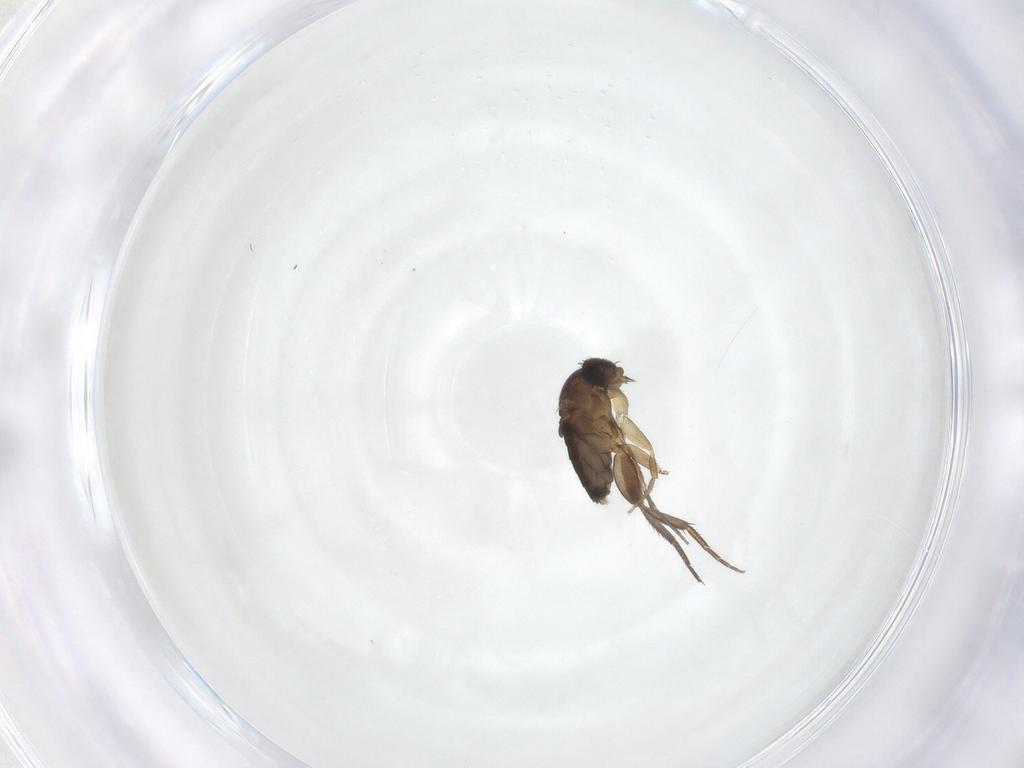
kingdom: Animalia
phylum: Arthropoda
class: Insecta
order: Diptera
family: Chironomidae
